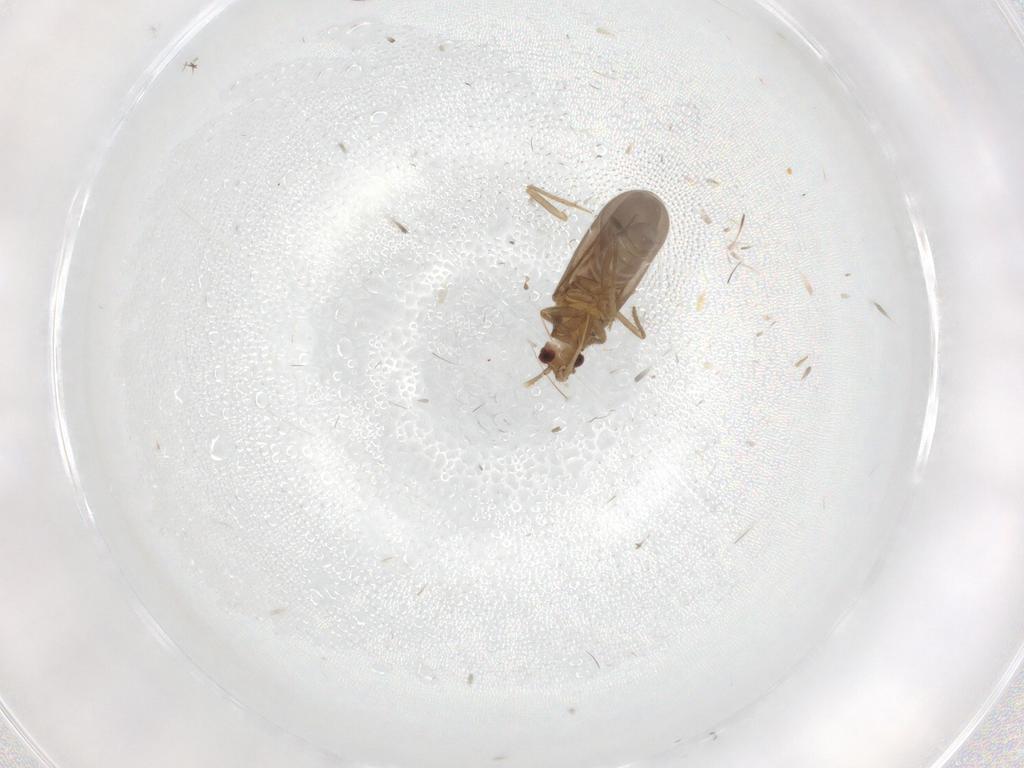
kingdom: Animalia
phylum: Arthropoda
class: Insecta
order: Hemiptera
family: Ceratocombidae
